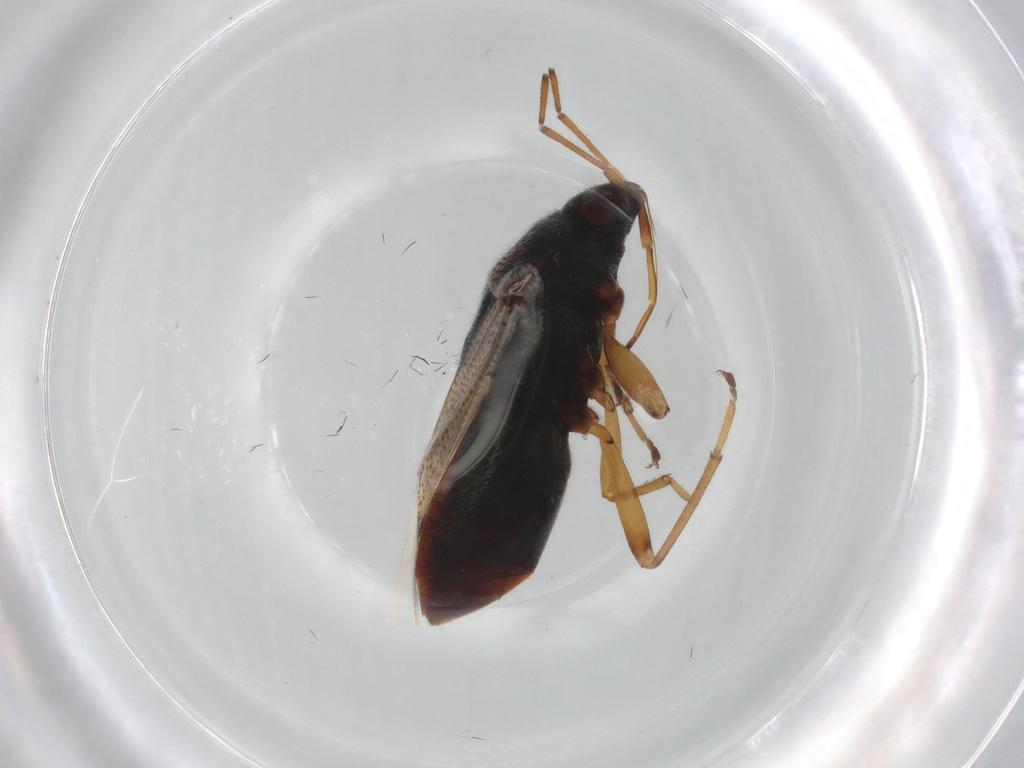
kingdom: Animalia
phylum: Arthropoda
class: Insecta
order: Hemiptera
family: Rhyparochromidae
